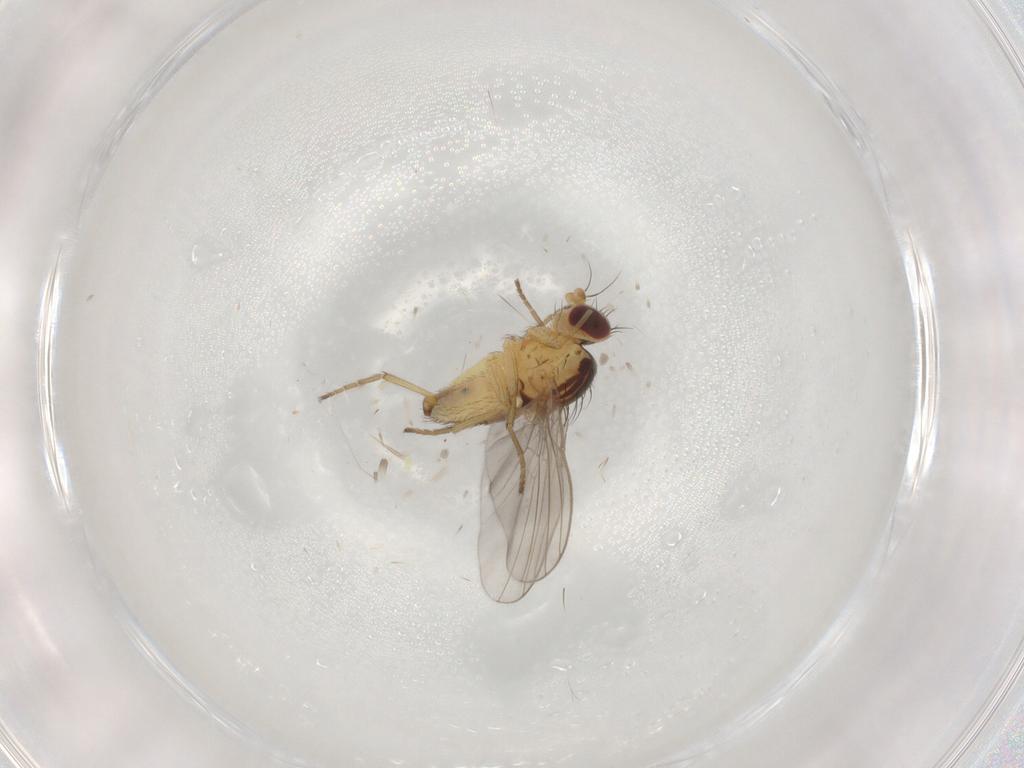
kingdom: Animalia
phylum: Arthropoda
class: Insecta
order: Diptera
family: Agromyzidae
